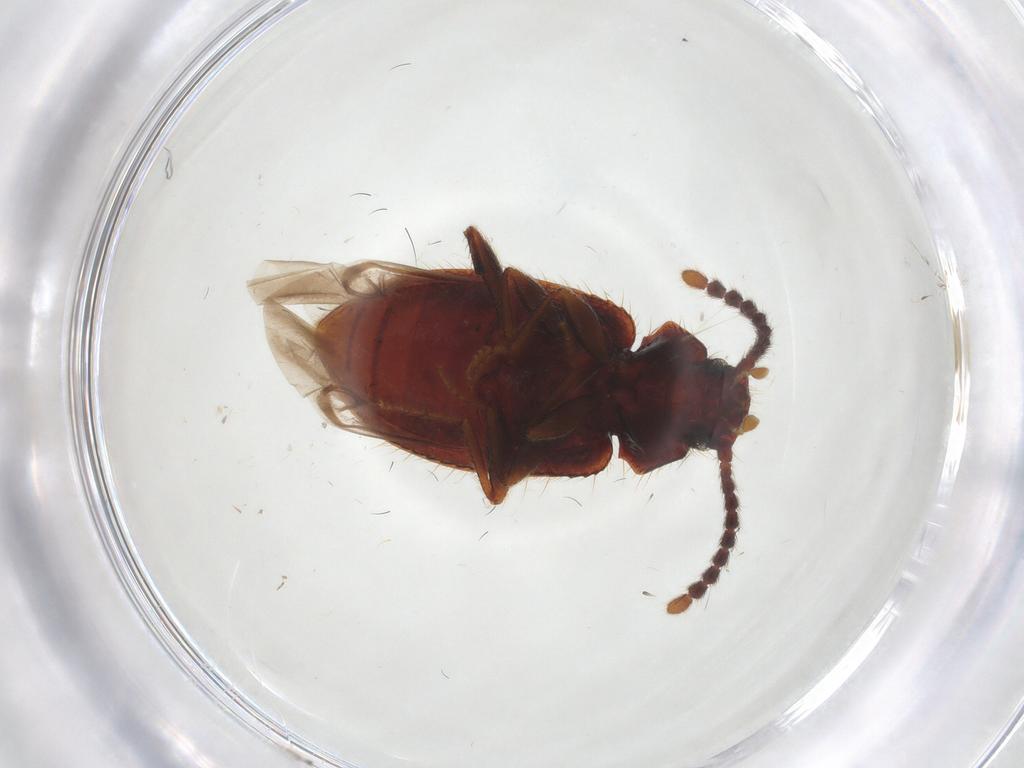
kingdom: Animalia
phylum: Arthropoda
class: Insecta
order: Coleoptera
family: Tenebrionidae
